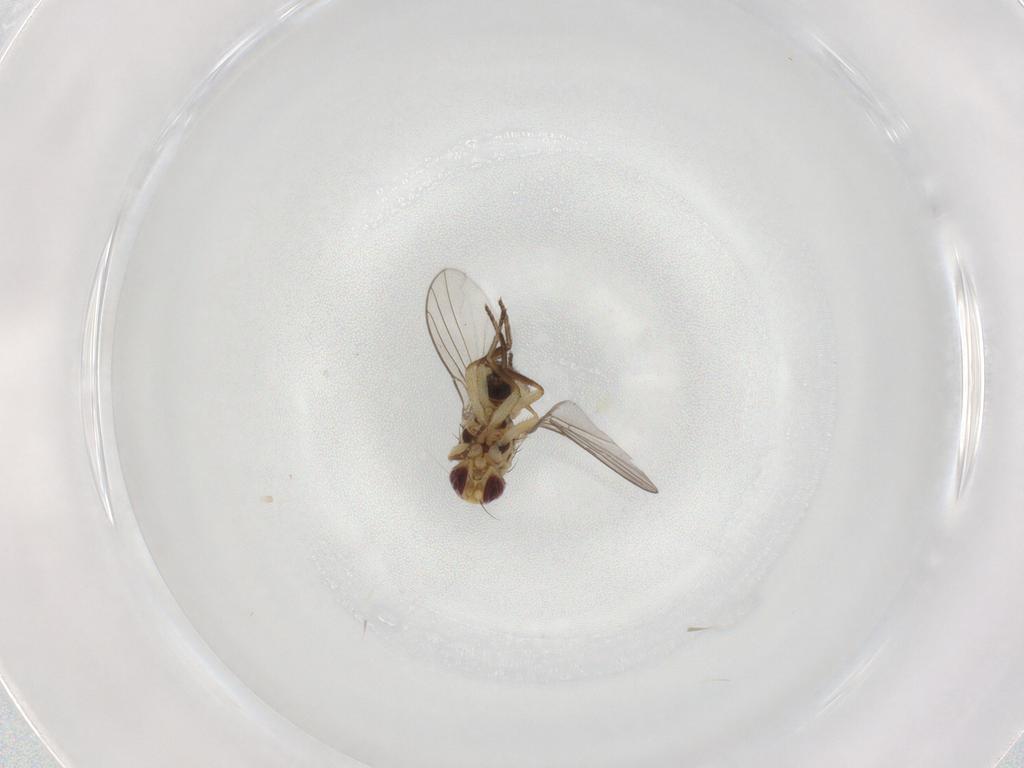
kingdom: Animalia
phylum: Arthropoda
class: Insecta
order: Diptera
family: Agromyzidae
